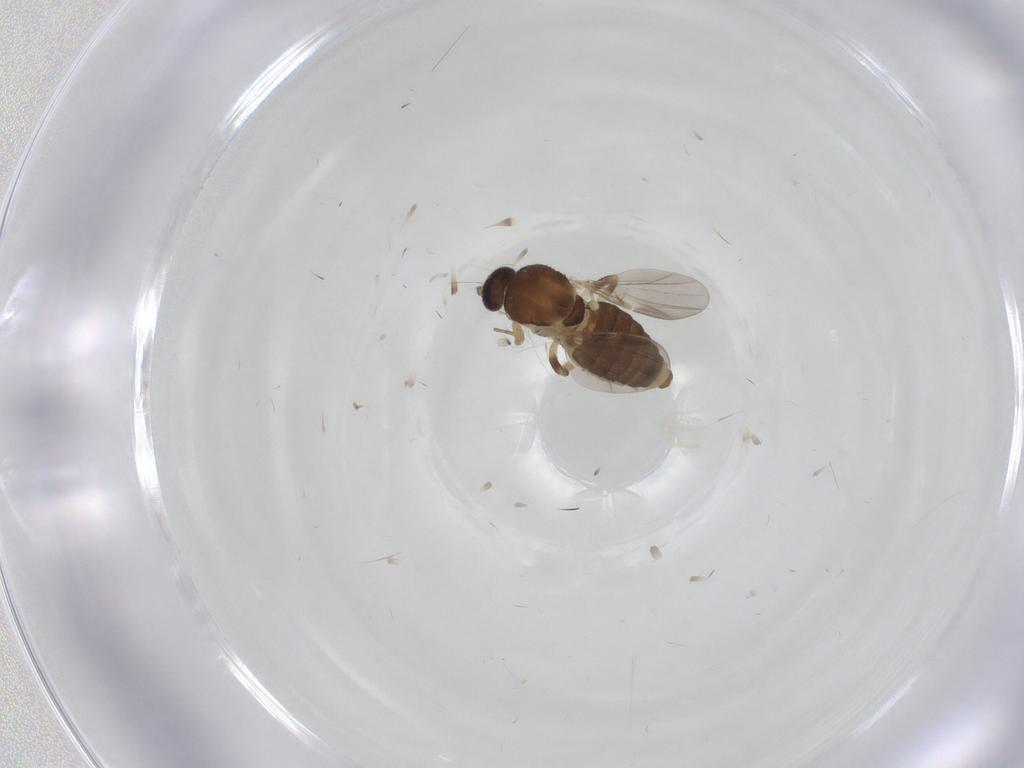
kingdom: Animalia
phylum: Arthropoda
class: Insecta
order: Diptera
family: Ceratopogonidae
